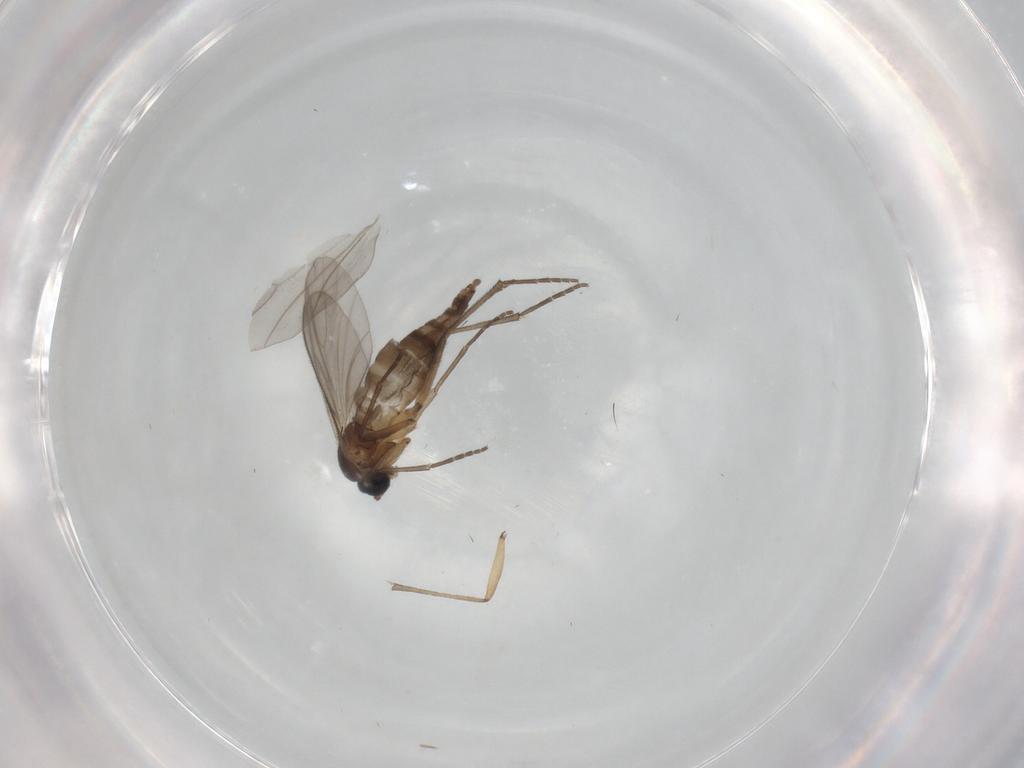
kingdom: Animalia
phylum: Arthropoda
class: Insecta
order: Diptera
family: Sciaridae
